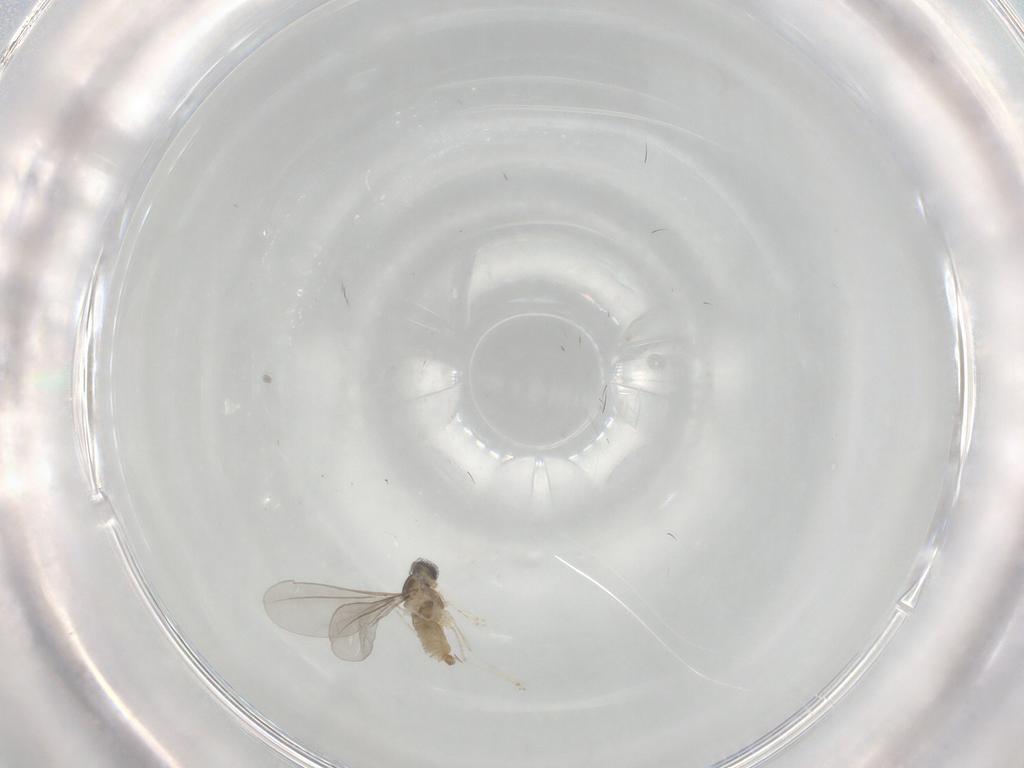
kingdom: Animalia
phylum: Arthropoda
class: Insecta
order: Diptera
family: Cecidomyiidae
